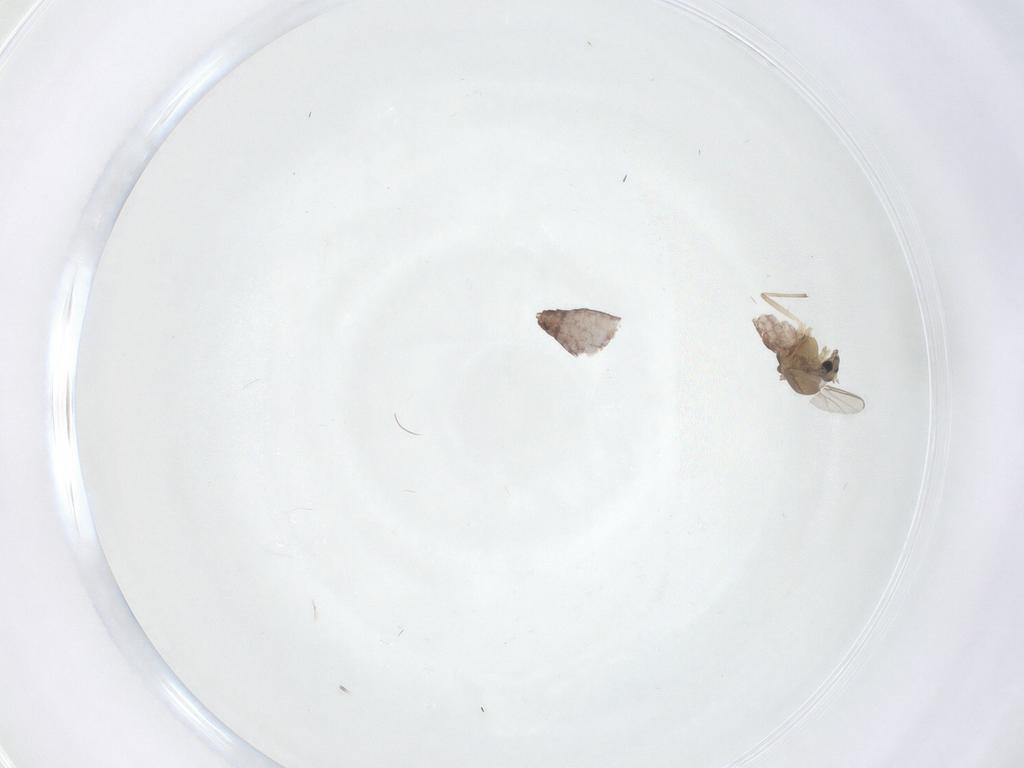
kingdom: Animalia
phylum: Arthropoda
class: Insecta
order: Diptera
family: Chironomidae
